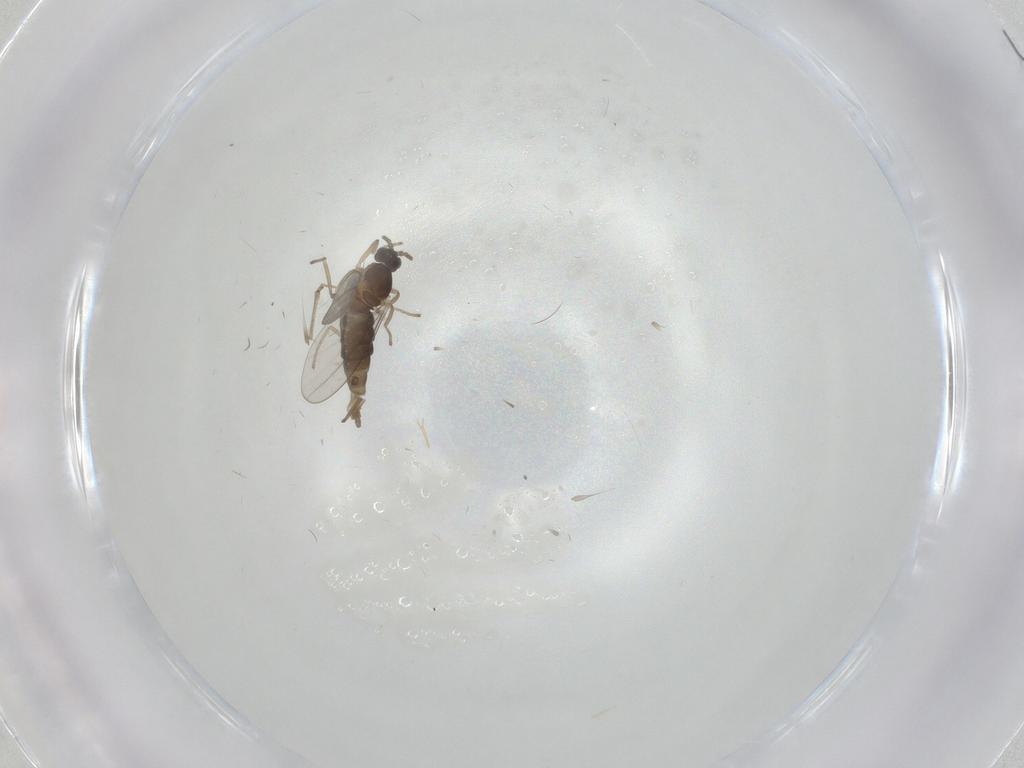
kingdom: Animalia
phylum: Arthropoda
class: Insecta
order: Diptera
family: Cecidomyiidae
